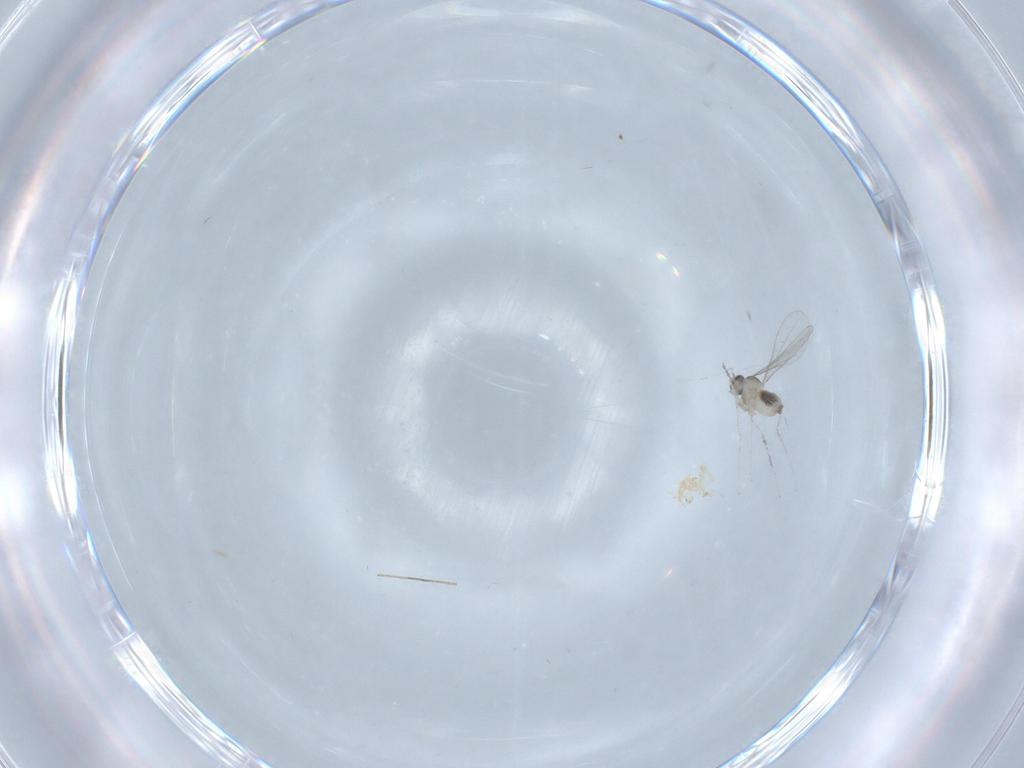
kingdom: Animalia
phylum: Arthropoda
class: Insecta
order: Diptera
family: Cecidomyiidae
